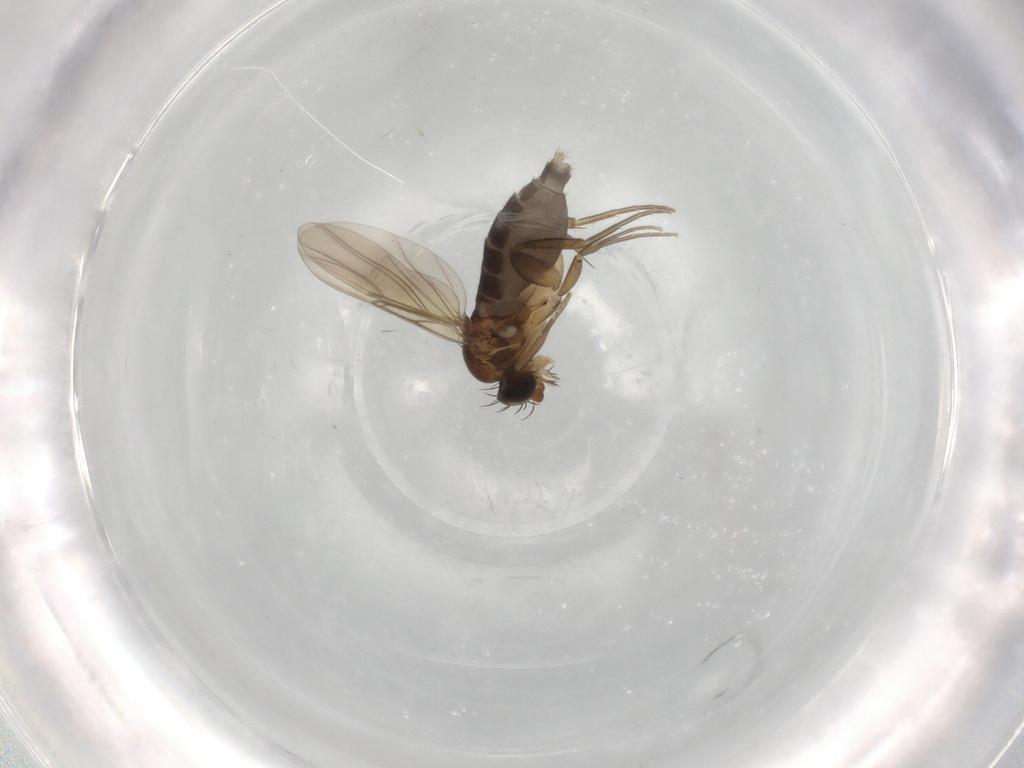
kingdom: Animalia
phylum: Arthropoda
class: Insecta
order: Diptera
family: Phoridae
